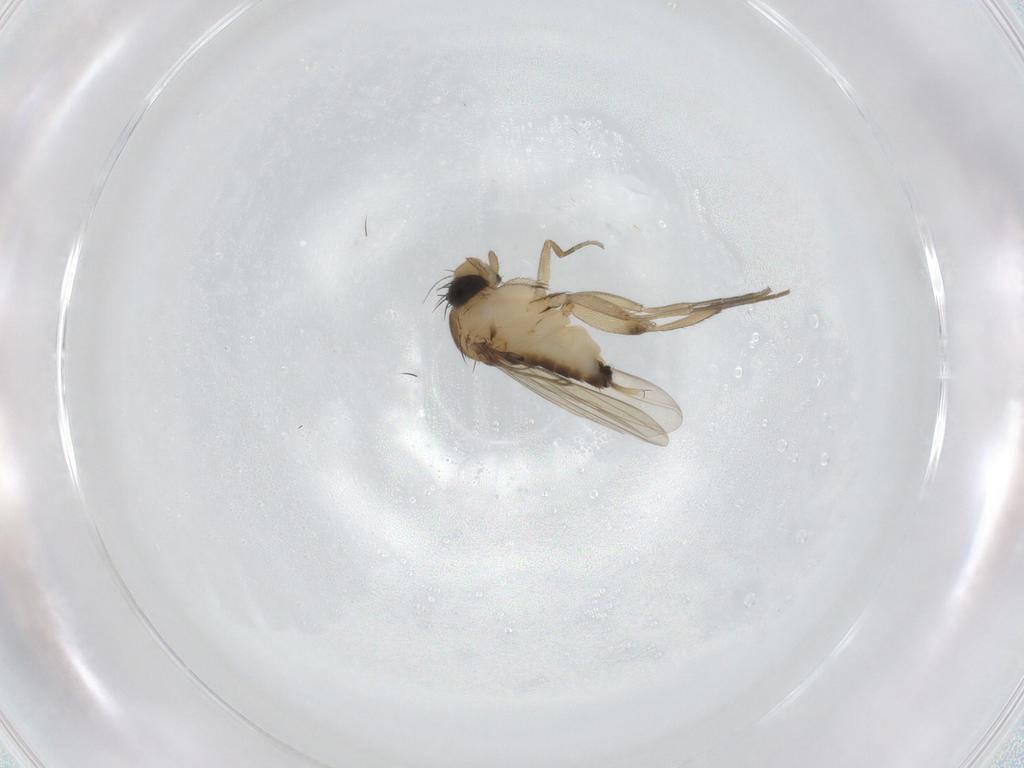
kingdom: Animalia
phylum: Arthropoda
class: Insecta
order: Diptera
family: Phoridae
